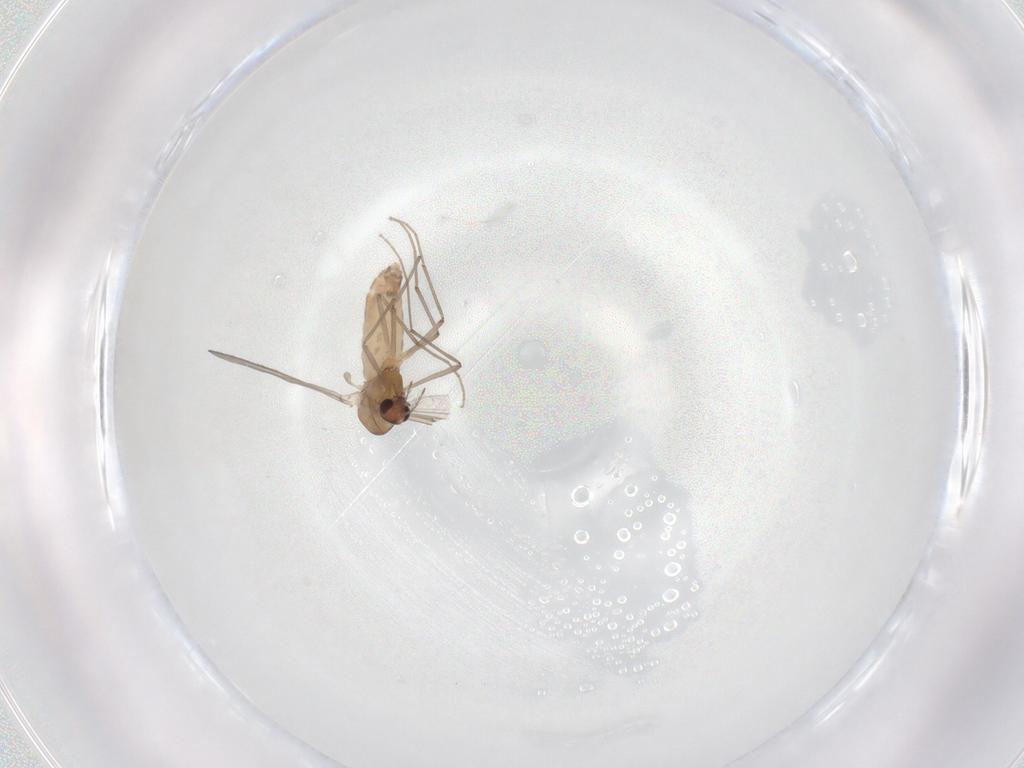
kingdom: Animalia
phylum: Arthropoda
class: Insecta
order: Diptera
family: Chironomidae
